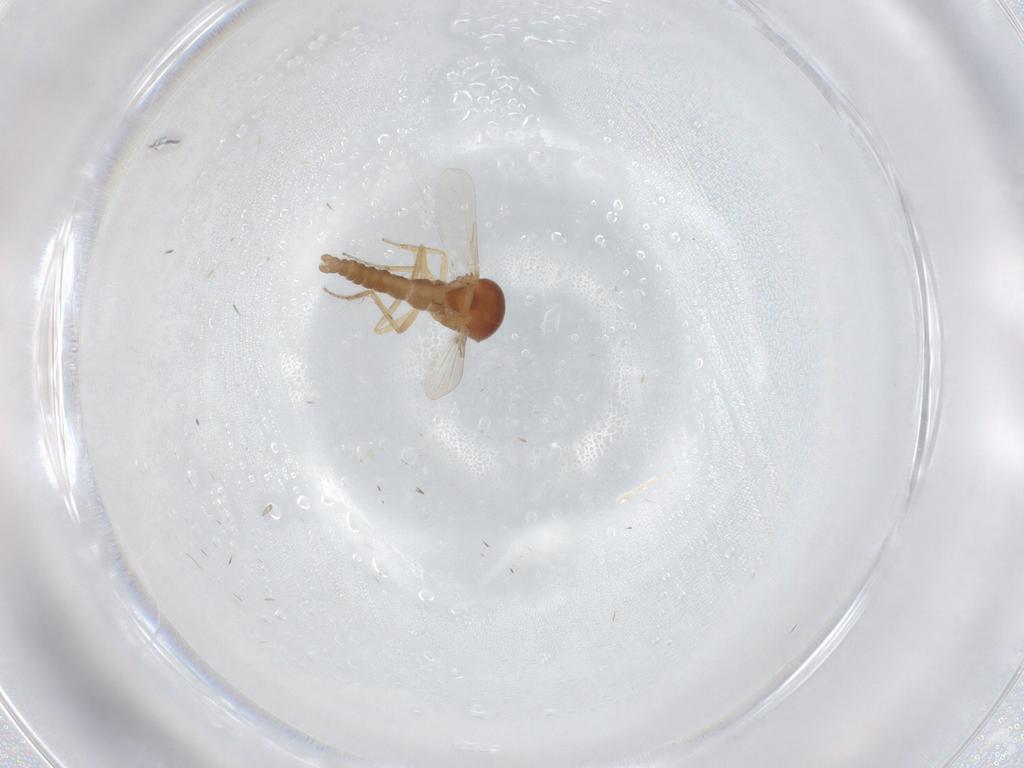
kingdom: Animalia
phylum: Arthropoda
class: Insecta
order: Diptera
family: Ceratopogonidae
